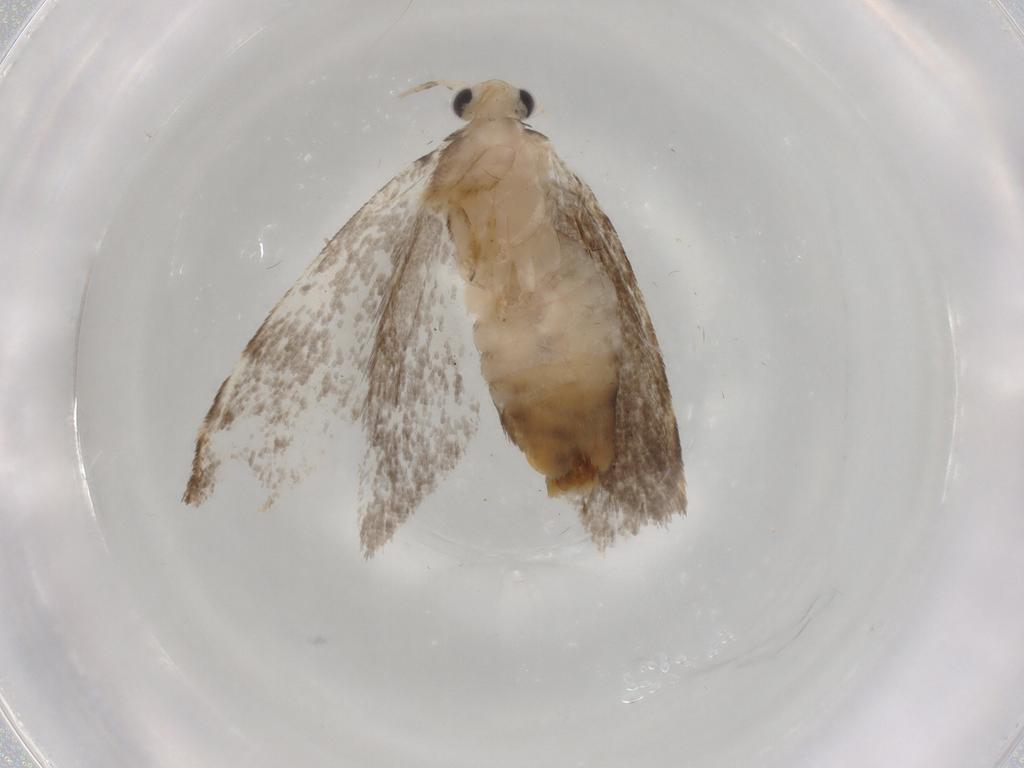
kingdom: Animalia
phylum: Arthropoda
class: Insecta
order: Lepidoptera
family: Tineidae
